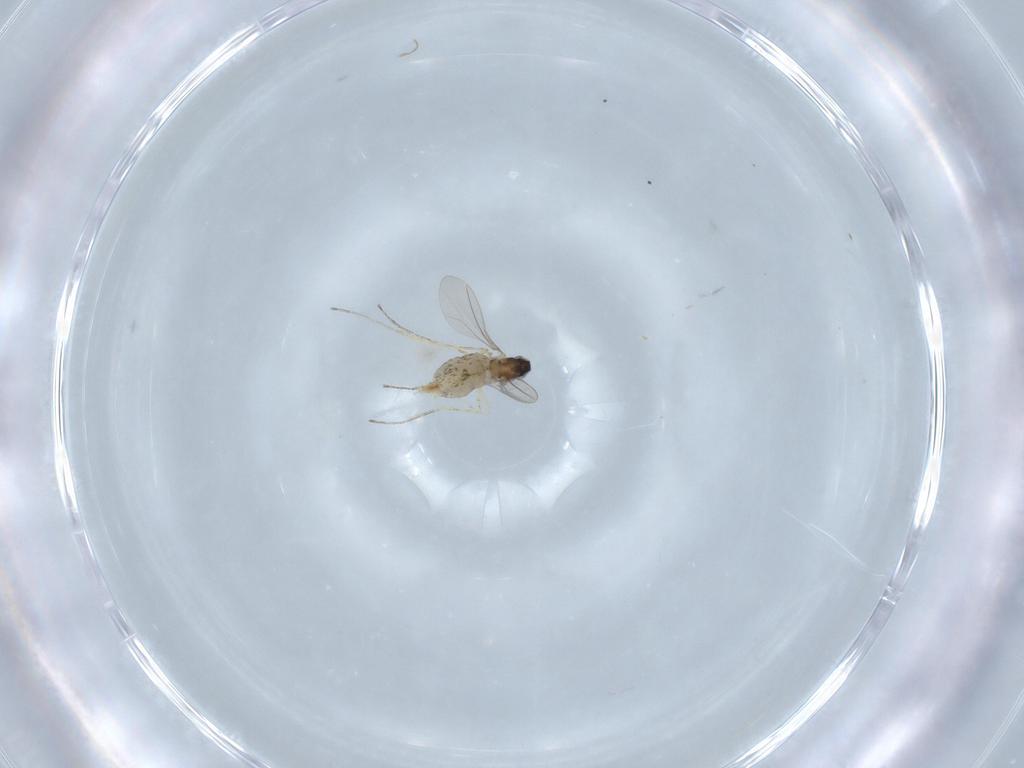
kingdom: Animalia
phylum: Arthropoda
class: Insecta
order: Diptera
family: Cecidomyiidae
